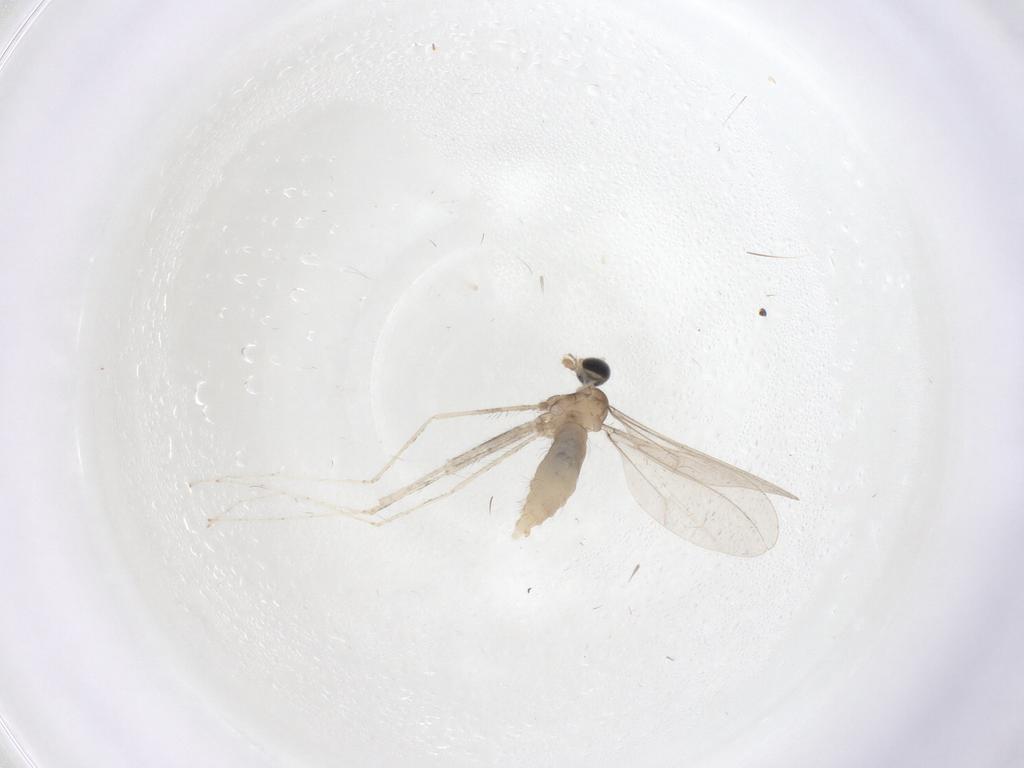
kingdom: Animalia
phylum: Arthropoda
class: Insecta
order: Diptera
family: Cecidomyiidae
